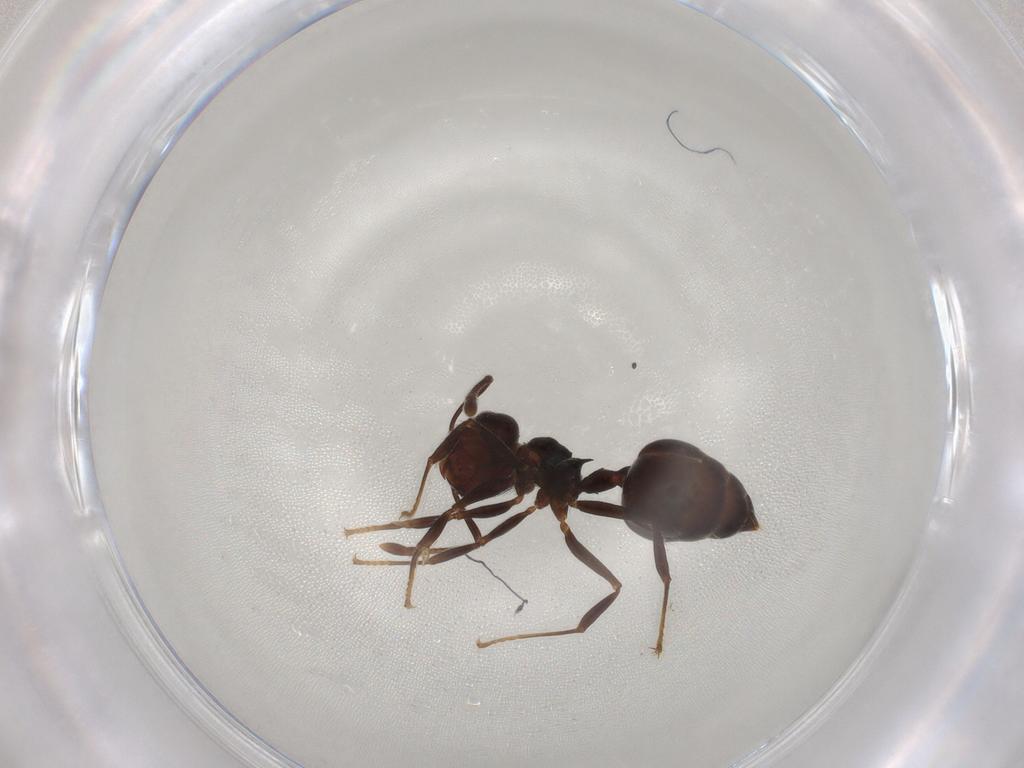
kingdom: Animalia
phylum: Arthropoda
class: Insecta
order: Hymenoptera
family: Formicidae
